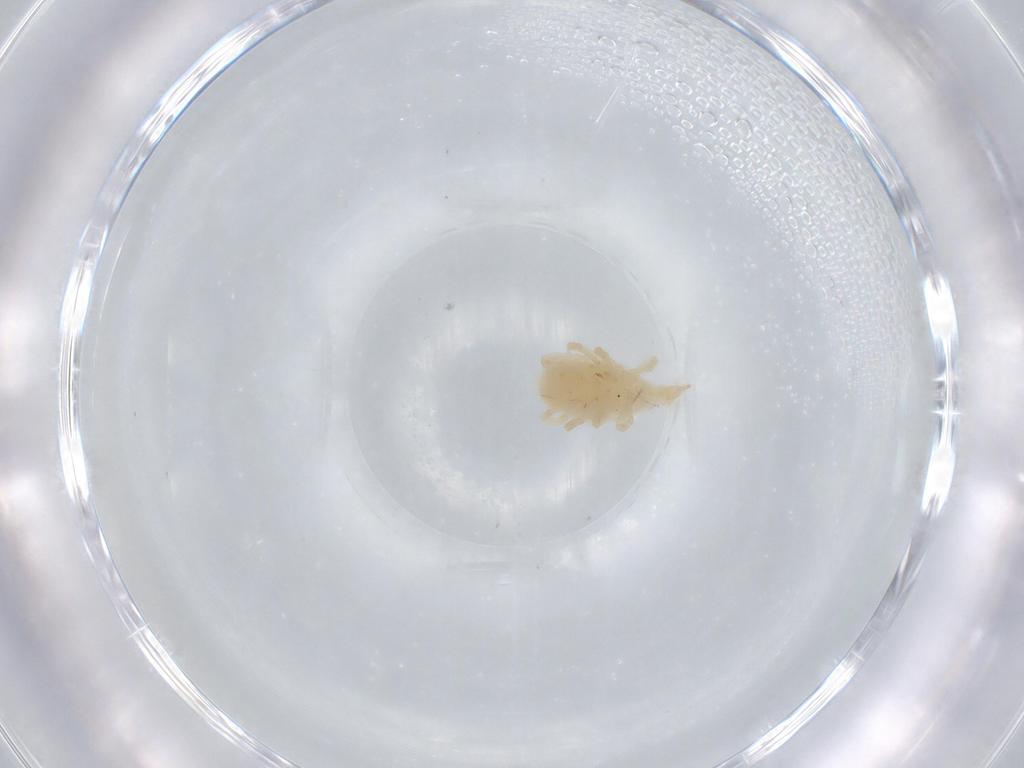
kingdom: Animalia
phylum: Arthropoda
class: Arachnida
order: Trombidiformes
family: Bdellidae
